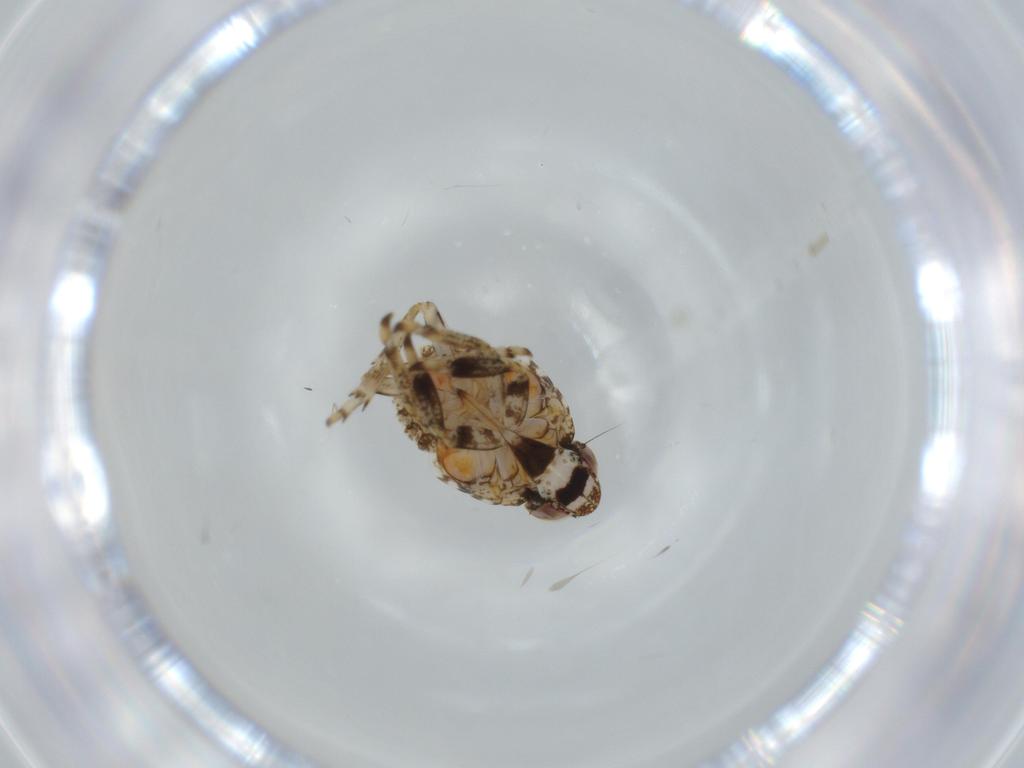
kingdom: Animalia
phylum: Arthropoda
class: Insecta
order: Hemiptera
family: Issidae
